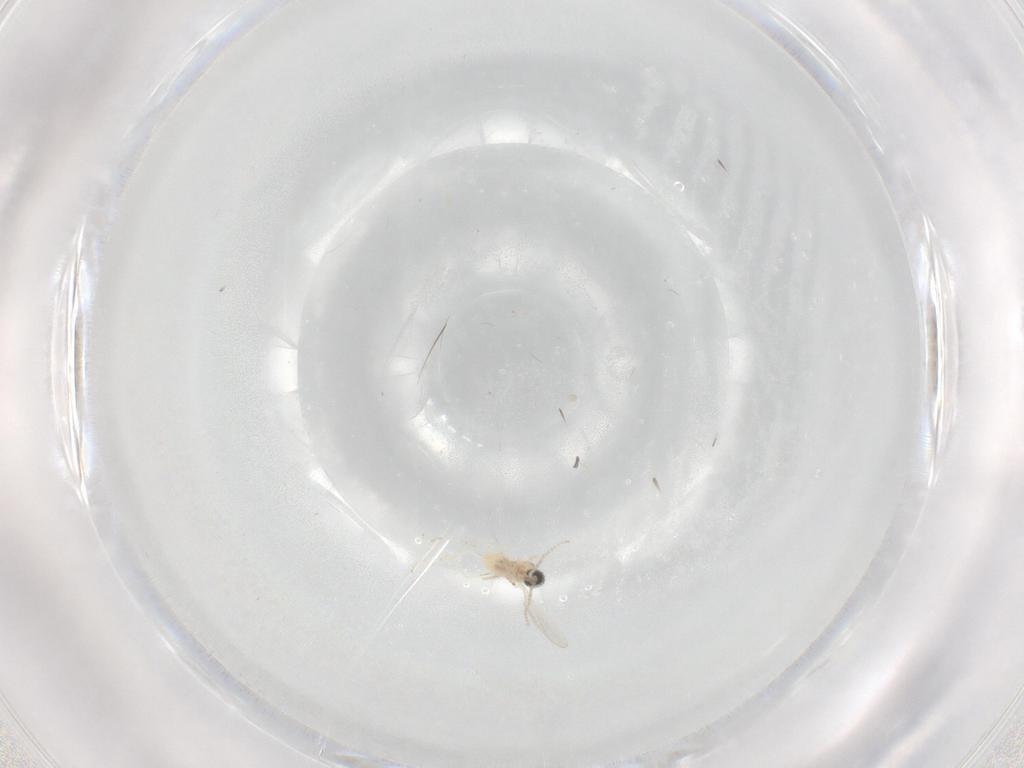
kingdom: Animalia
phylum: Arthropoda
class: Insecta
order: Diptera
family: Cecidomyiidae
